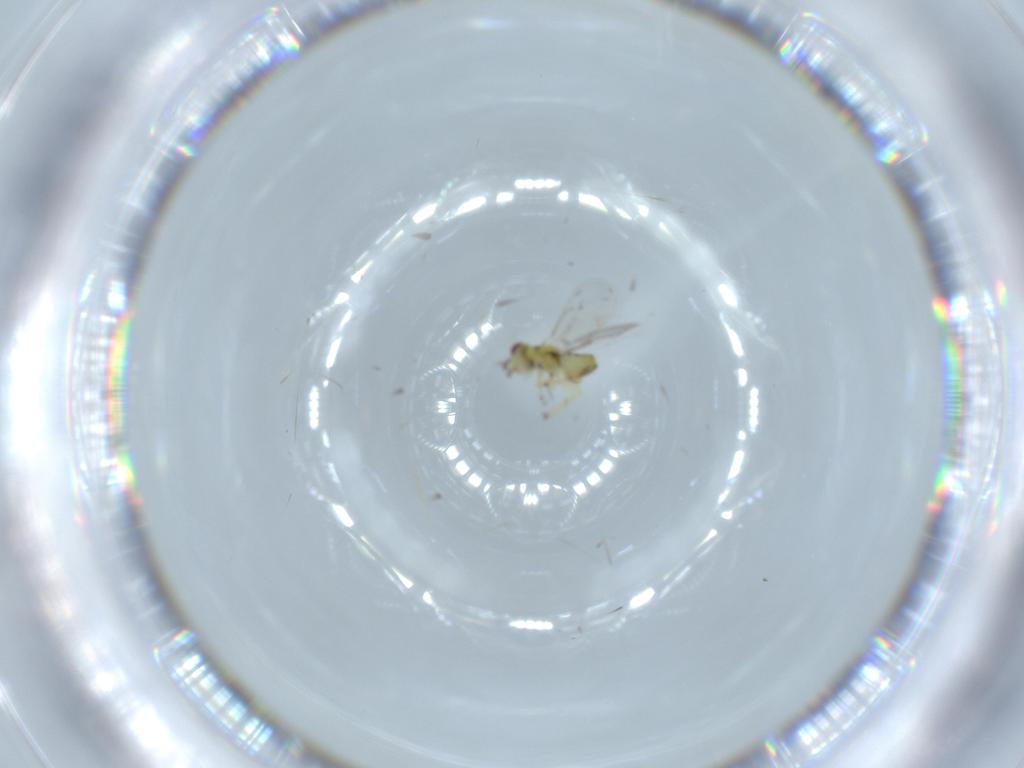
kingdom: Animalia
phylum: Arthropoda
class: Insecta
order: Hymenoptera
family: Eulophidae
